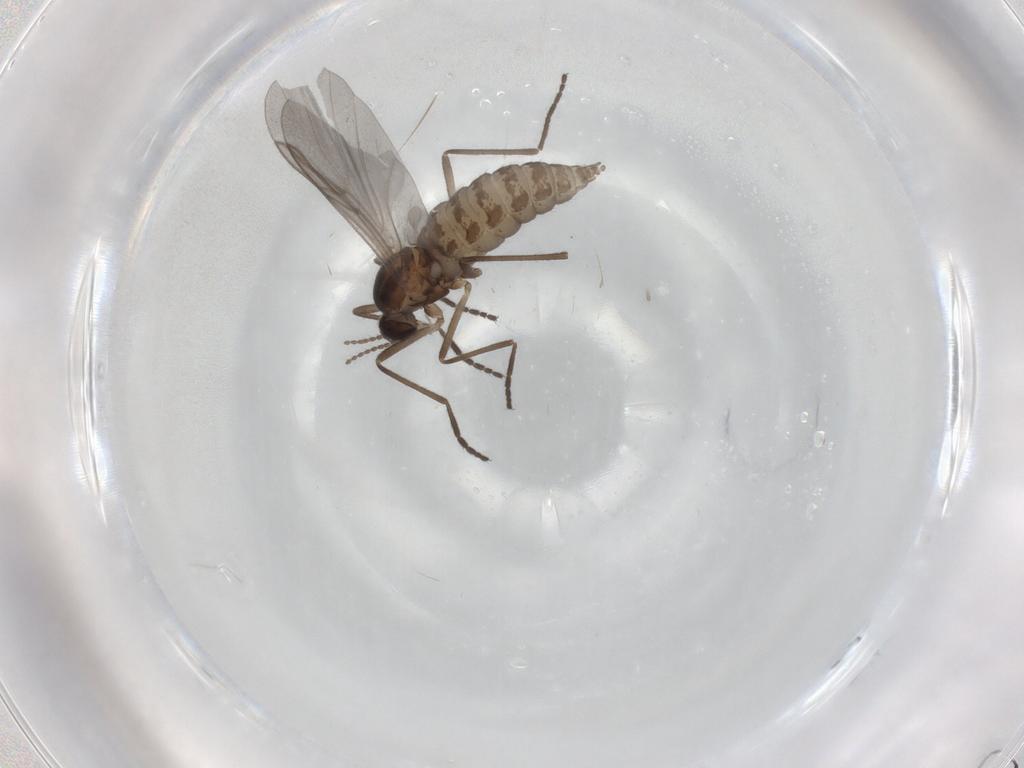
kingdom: Animalia
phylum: Arthropoda
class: Insecta
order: Diptera
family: Cecidomyiidae
